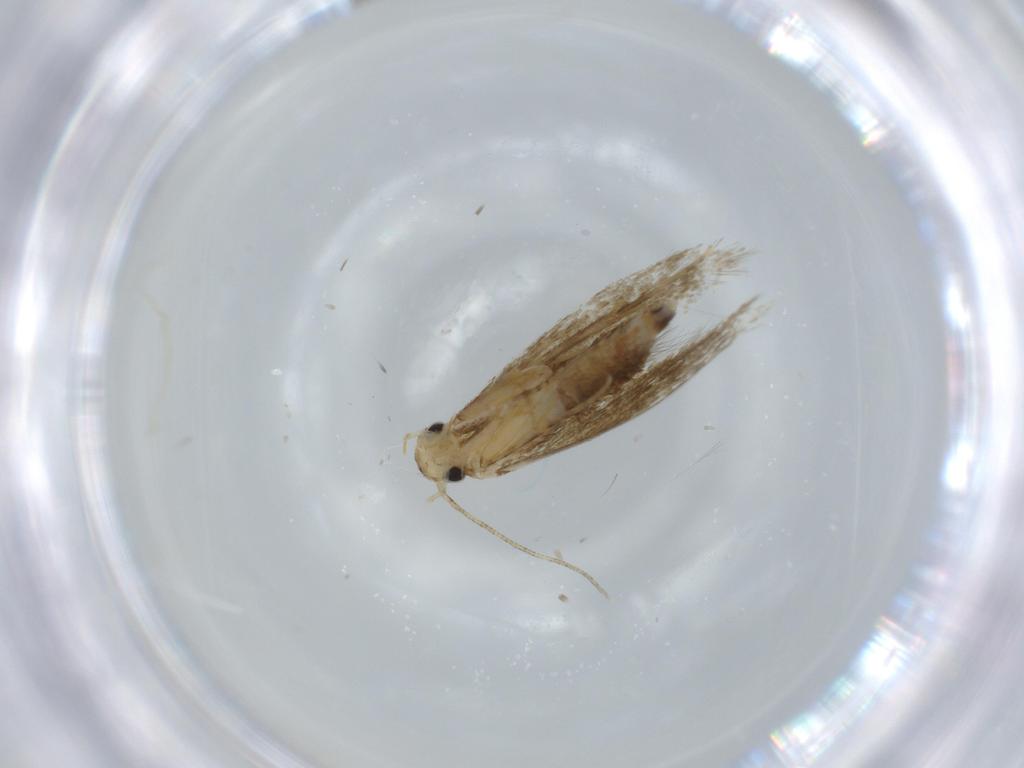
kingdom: Animalia
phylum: Arthropoda
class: Insecta
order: Lepidoptera
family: Tineidae
